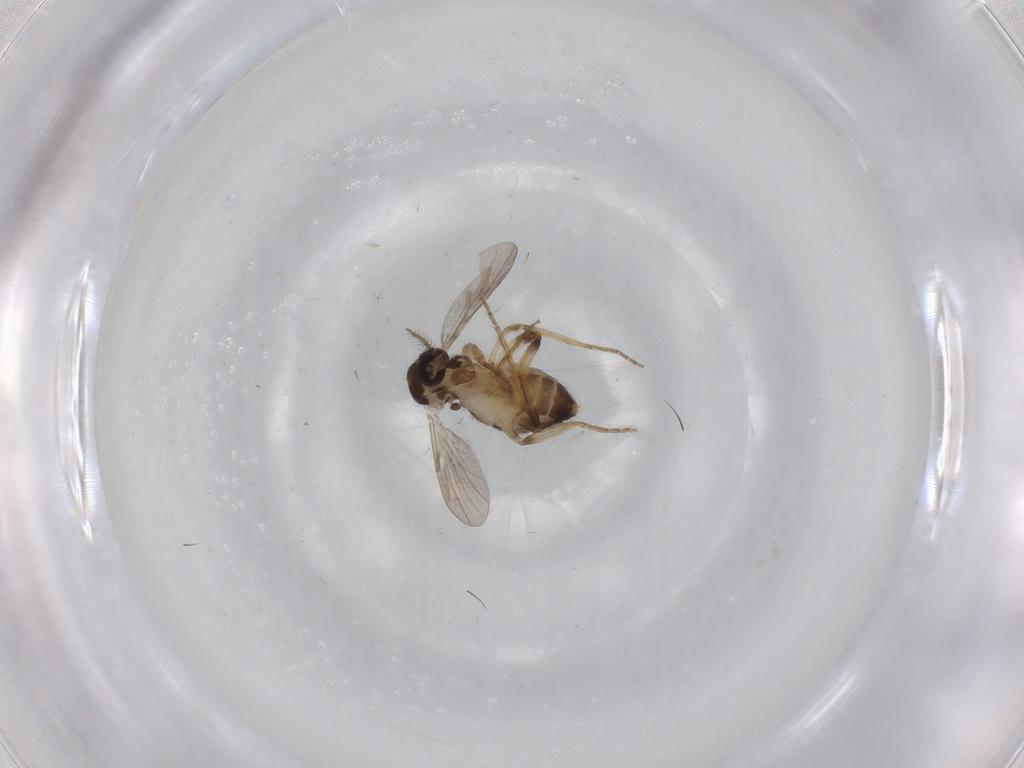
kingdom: Animalia
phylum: Arthropoda
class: Insecta
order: Diptera
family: Ceratopogonidae
